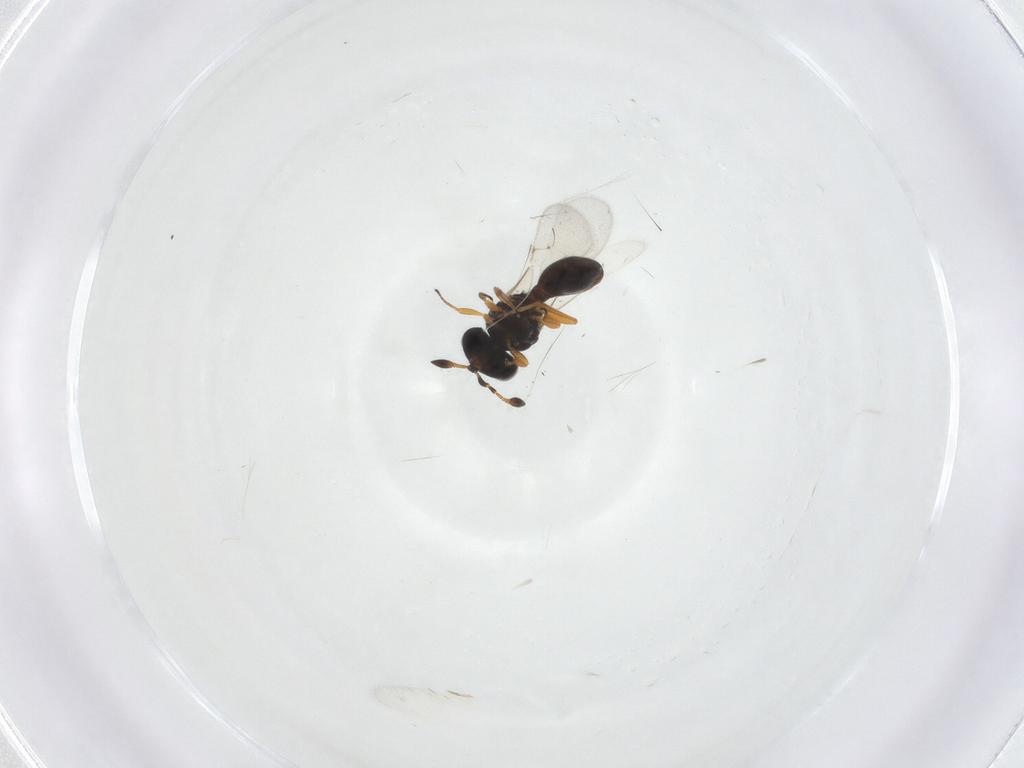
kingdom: Animalia
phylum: Arthropoda
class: Insecta
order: Hymenoptera
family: Scelionidae
